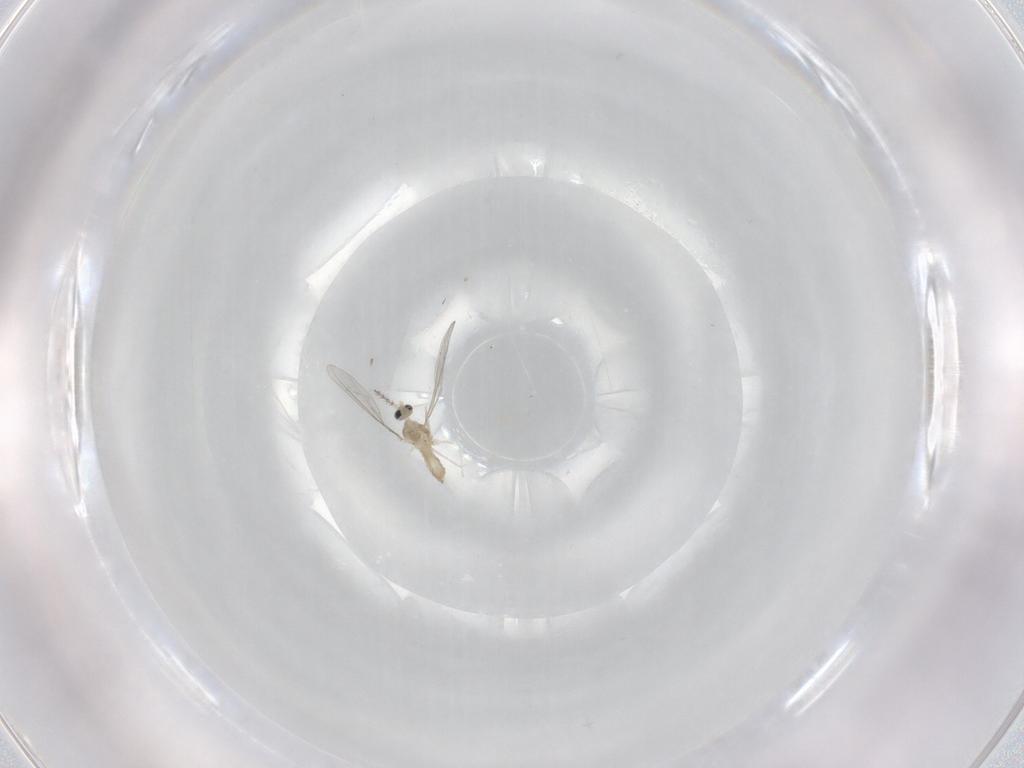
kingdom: Animalia
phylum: Arthropoda
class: Insecta
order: Diptera
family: Cecidomyiidae
